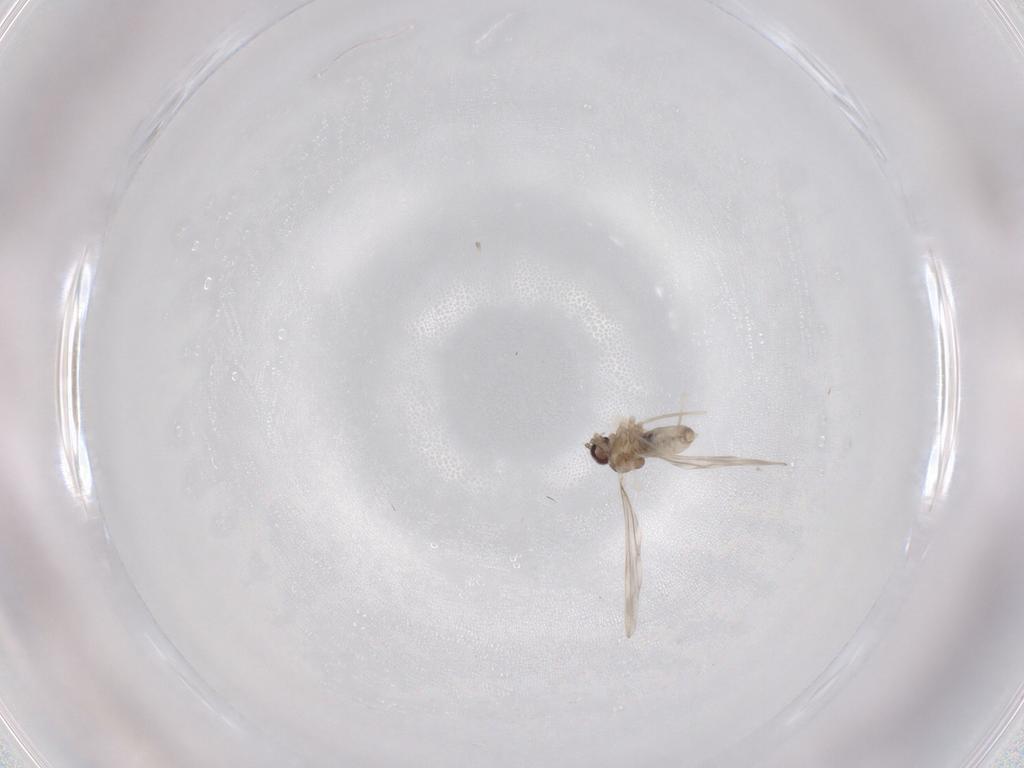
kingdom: Animalia
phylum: Arthropoda
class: Insecta
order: Diptera
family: Cecidomyiidae
